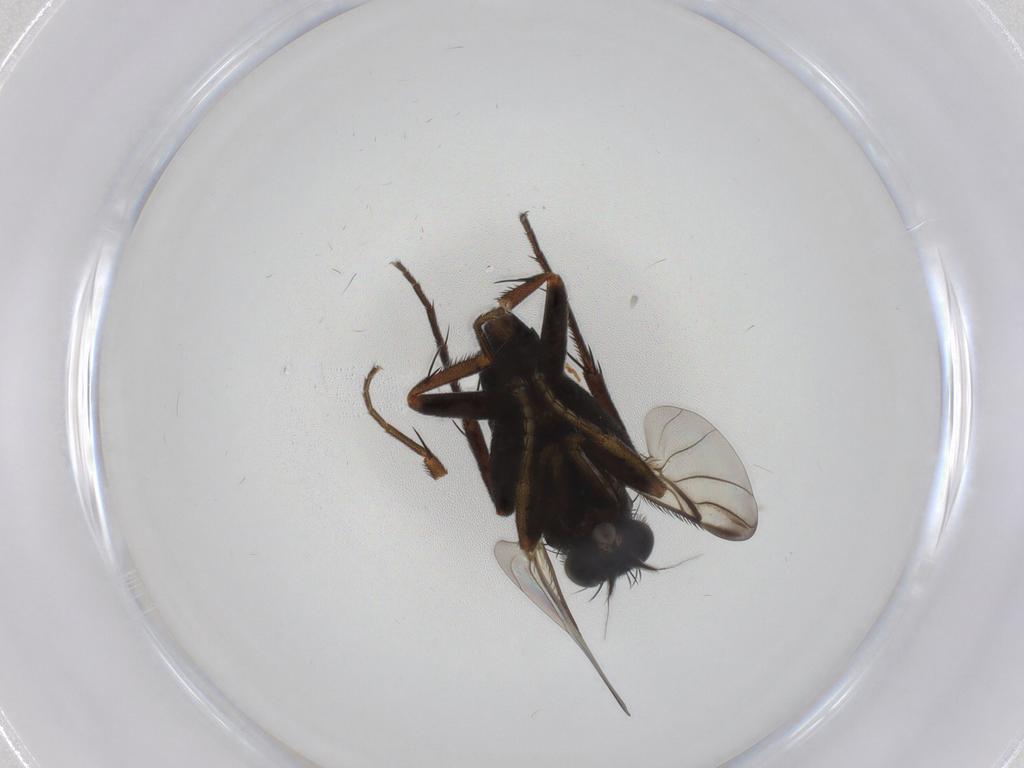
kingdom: Animalia
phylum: Arthropoda
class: Insecta
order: Diptera
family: Phoridae
